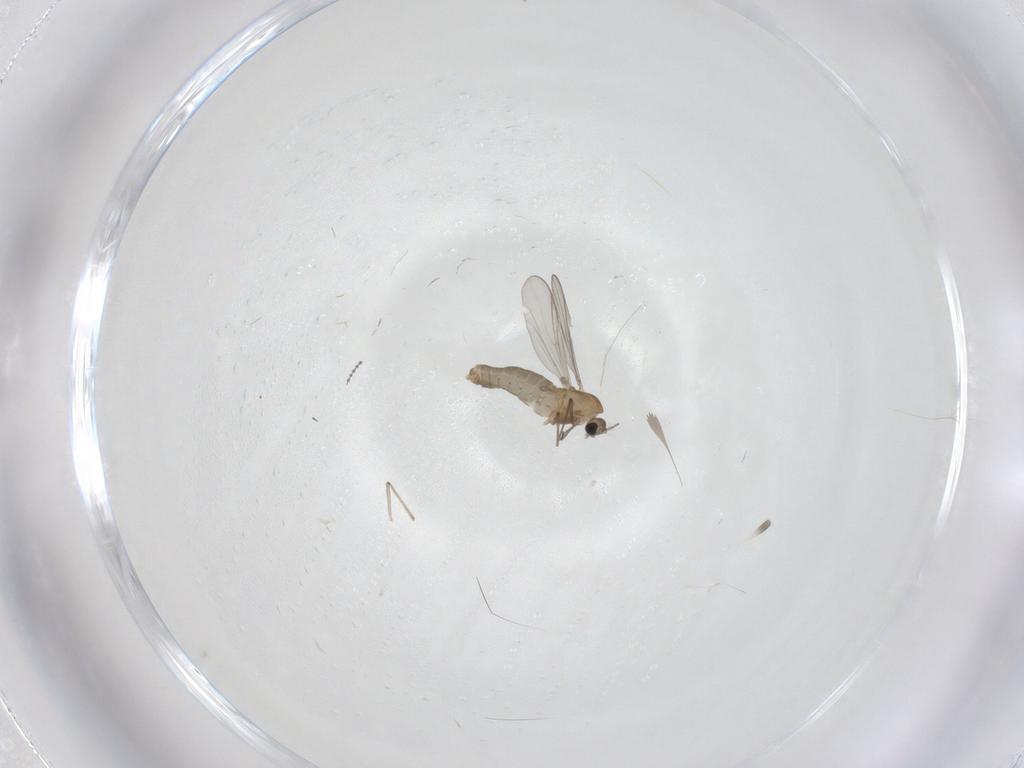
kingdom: Animalia
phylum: Arthropoda
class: Insecta
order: Diptera
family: Cecidomyiidae
